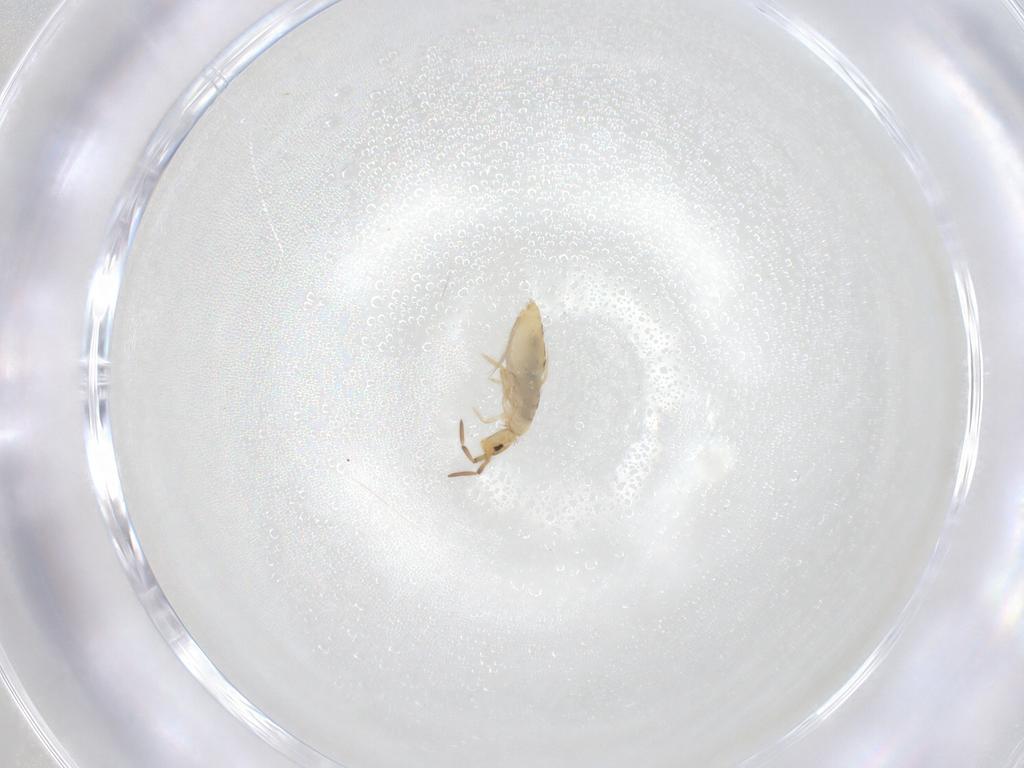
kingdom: Animalia
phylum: Arthropoda
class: Collembola
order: Entomobryomorpha
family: Entomobryidae
